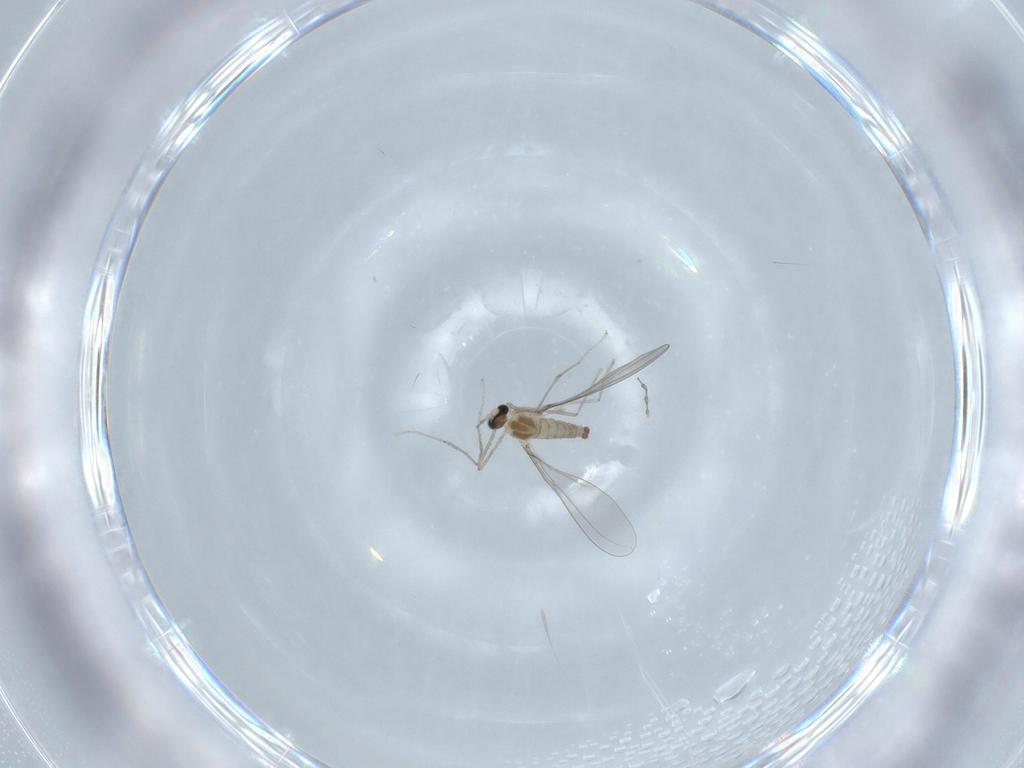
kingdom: Animalia
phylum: Arthropoda
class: Insecta
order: Diptera
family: Cecidomyiidae
